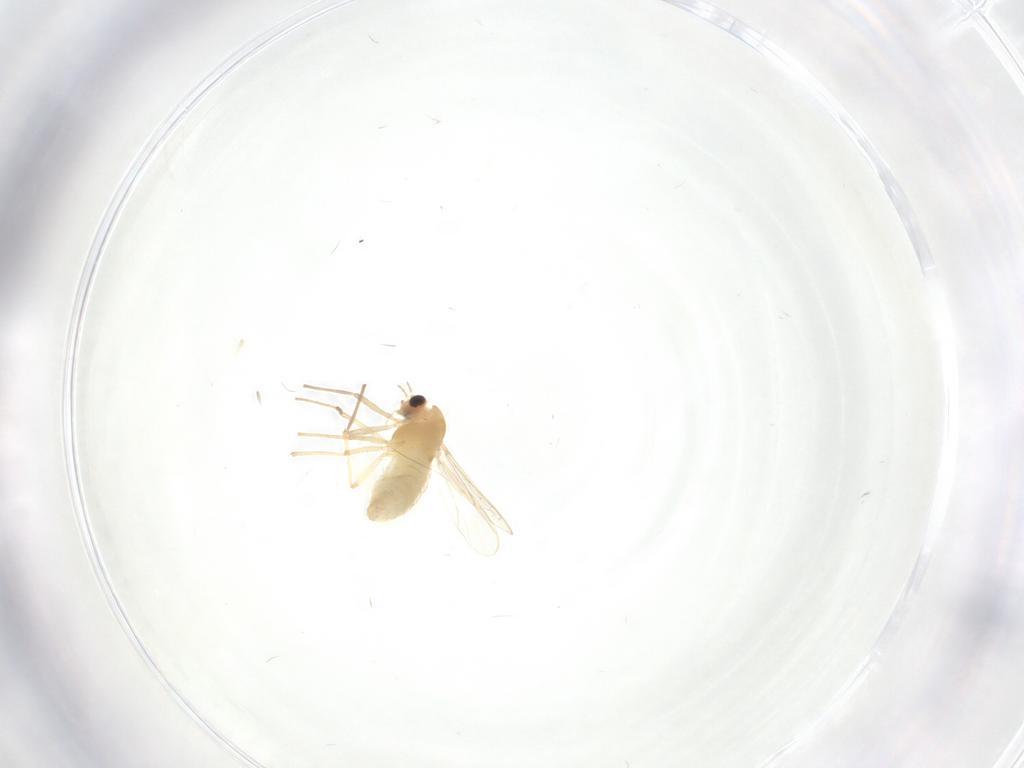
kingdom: Animalia
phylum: Arthropoda
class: Insecta
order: Diptera
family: Chironomidae
